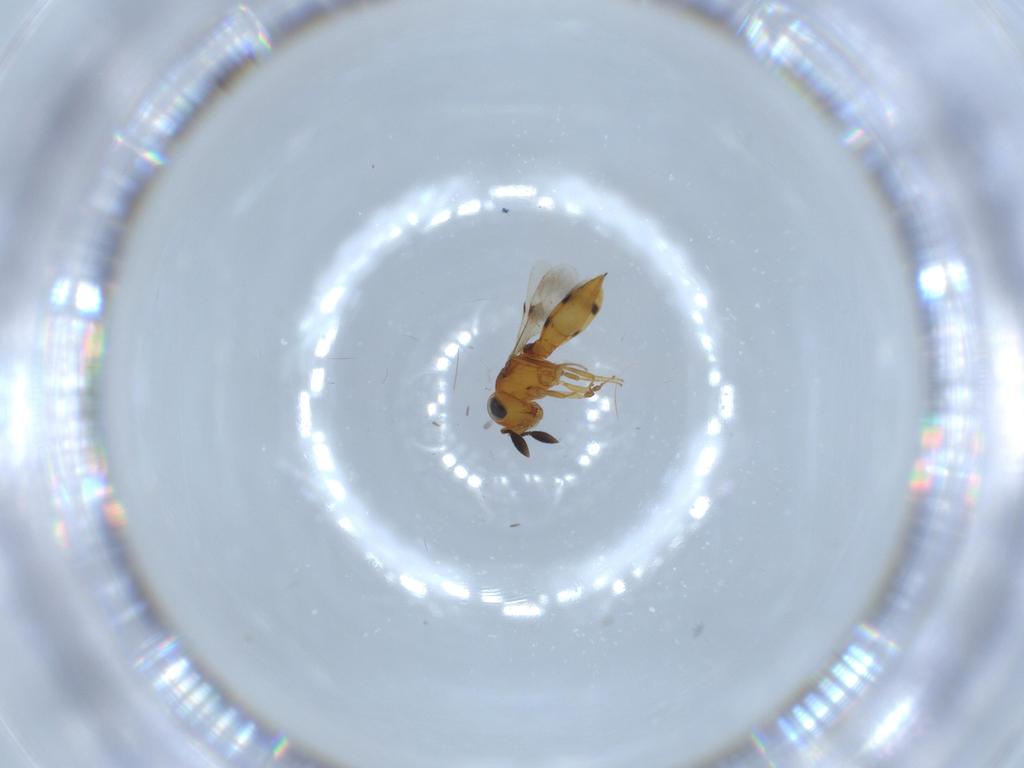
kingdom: Animalia
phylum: Arthropoda
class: Insecta
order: Hymenoptera
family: Scelionidae
